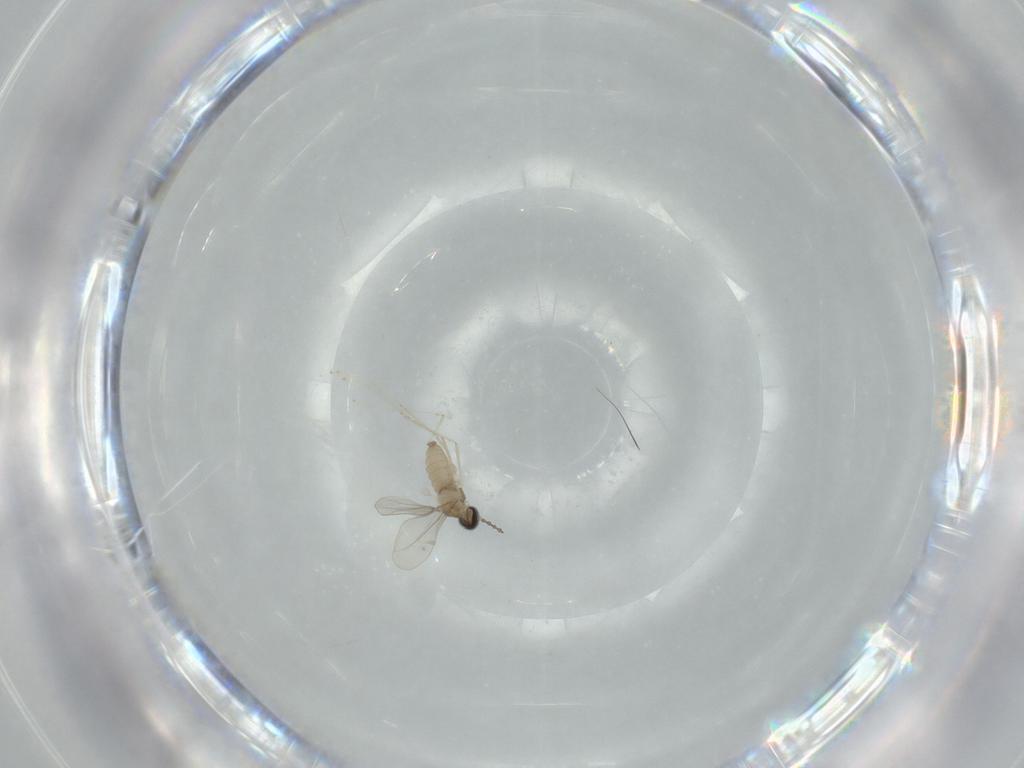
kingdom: Animalia
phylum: Arthropoda
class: Insecta
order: Diptera
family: Cecidomyiidae
